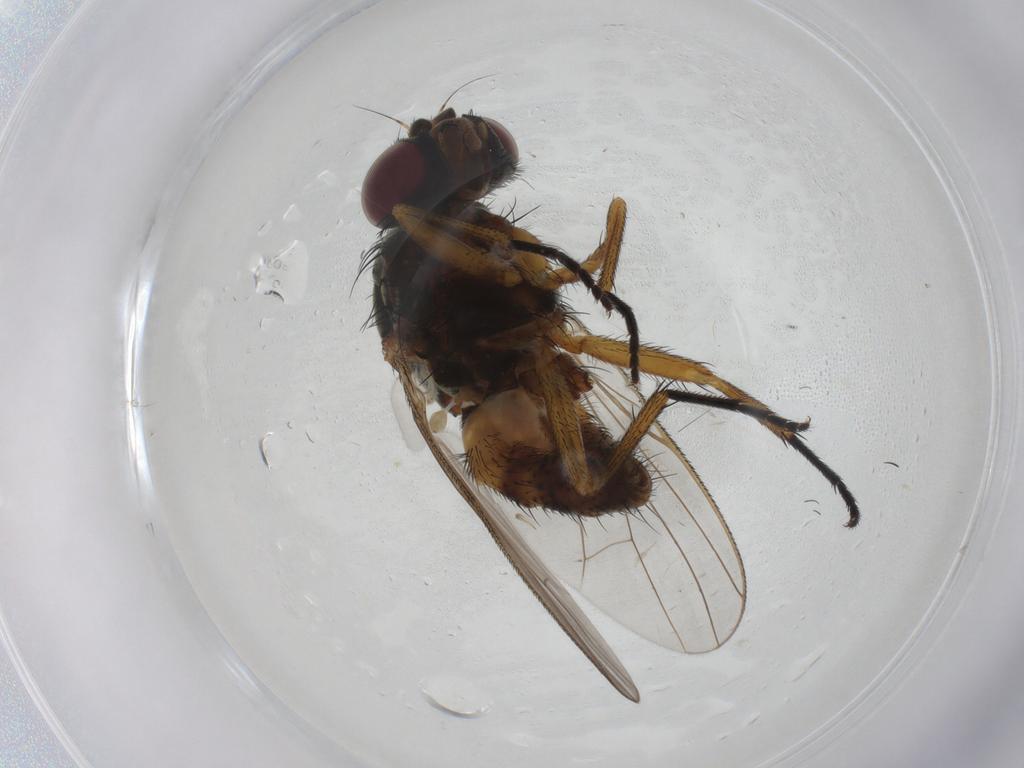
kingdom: Animalia
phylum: Arthropoda
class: Insecta
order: Diptera
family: Fannia
